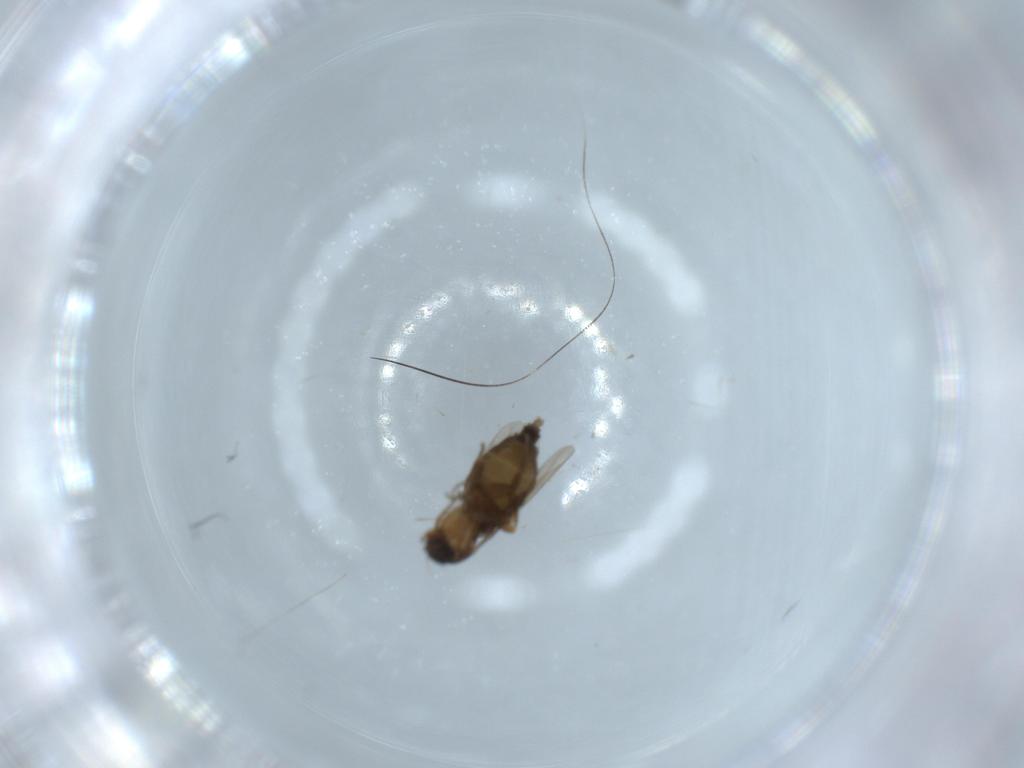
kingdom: Animalia
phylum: Arthropoda
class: Insecta
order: Diptera
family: Phoridae
